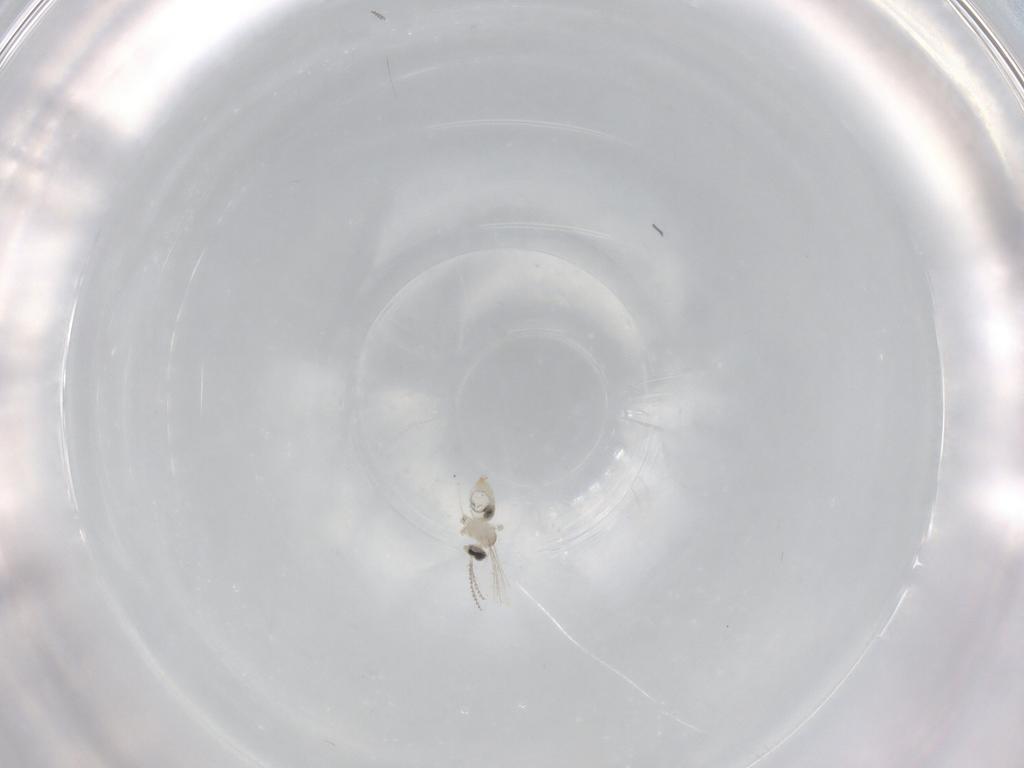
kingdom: Animalia
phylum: Arthropoda
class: Insecta
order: Diptera
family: Cecidomyiidae
